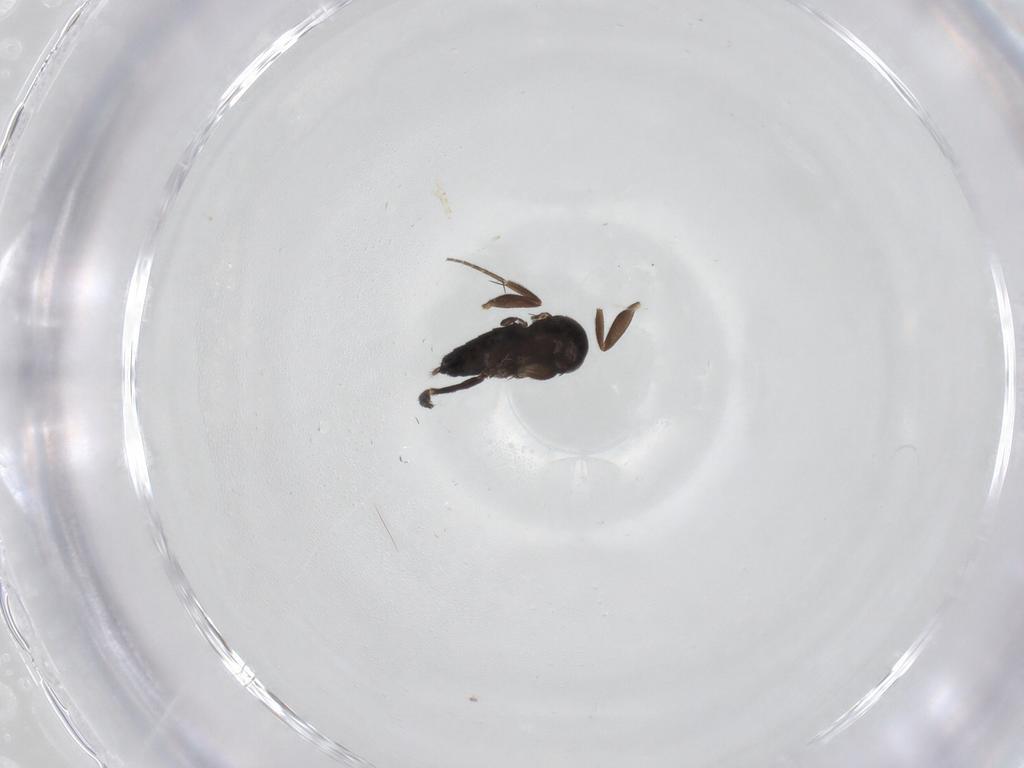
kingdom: Animalia
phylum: Arthropoda
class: Insecta
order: Diptera
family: Phoridae
